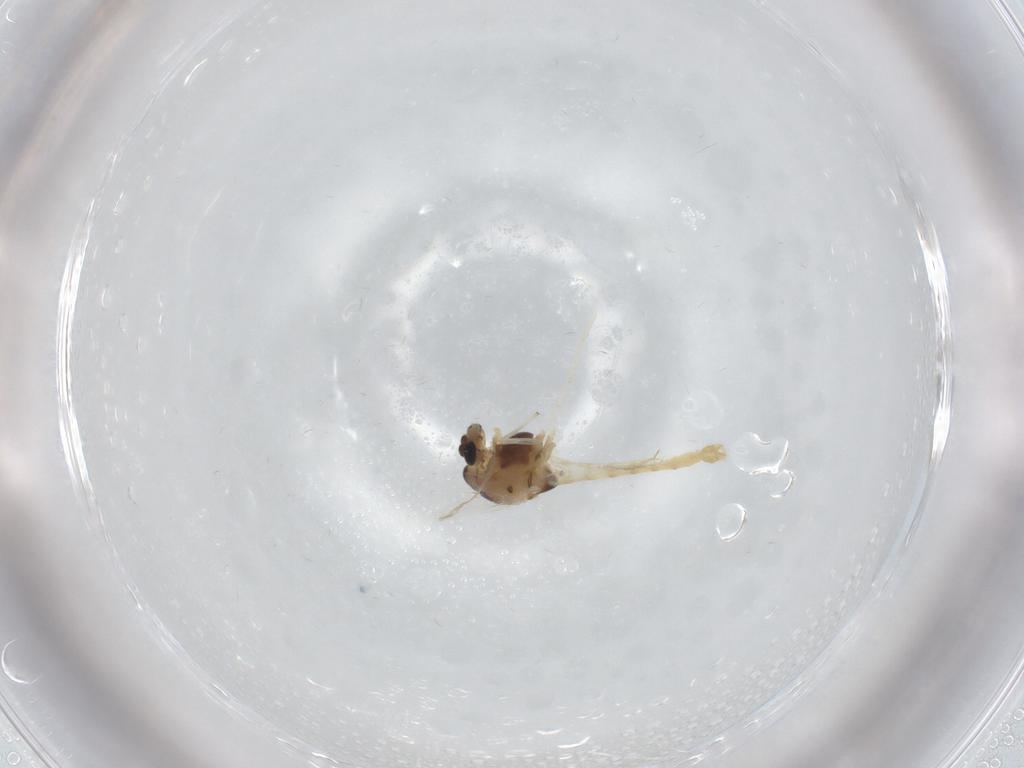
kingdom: Animalia
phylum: Arthropoda
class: Insecta
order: Diptera
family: Chironomidae
